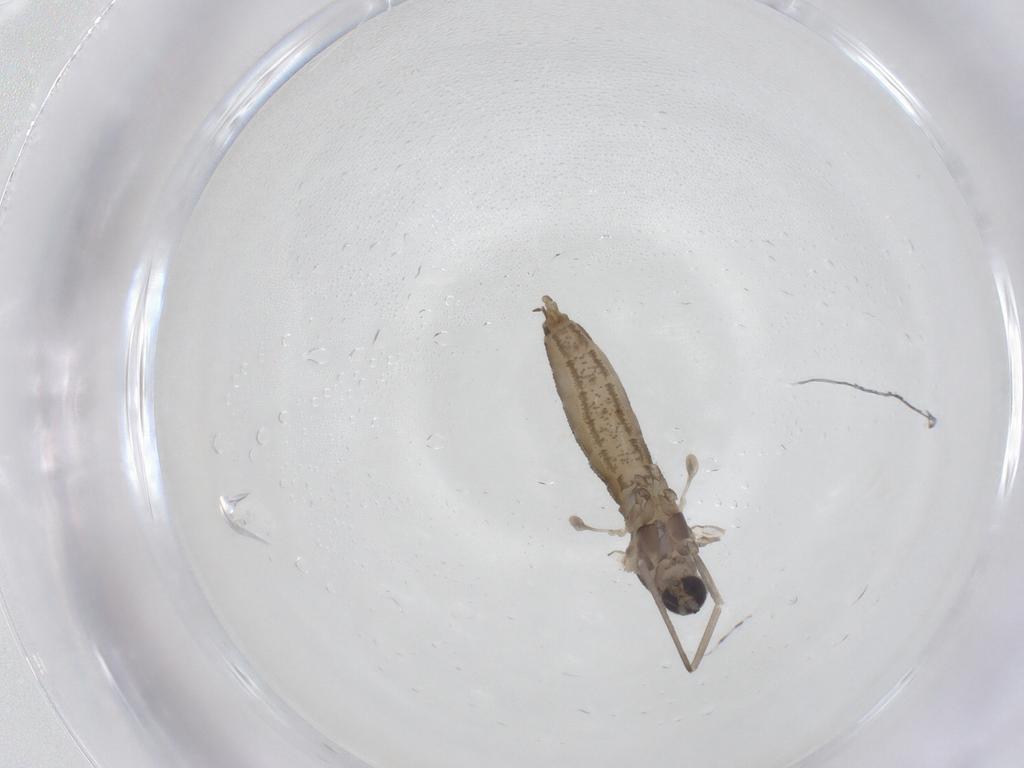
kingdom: Animalia
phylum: Arthropoda
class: Insecta
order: Diptera
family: Cecidomyiidae
